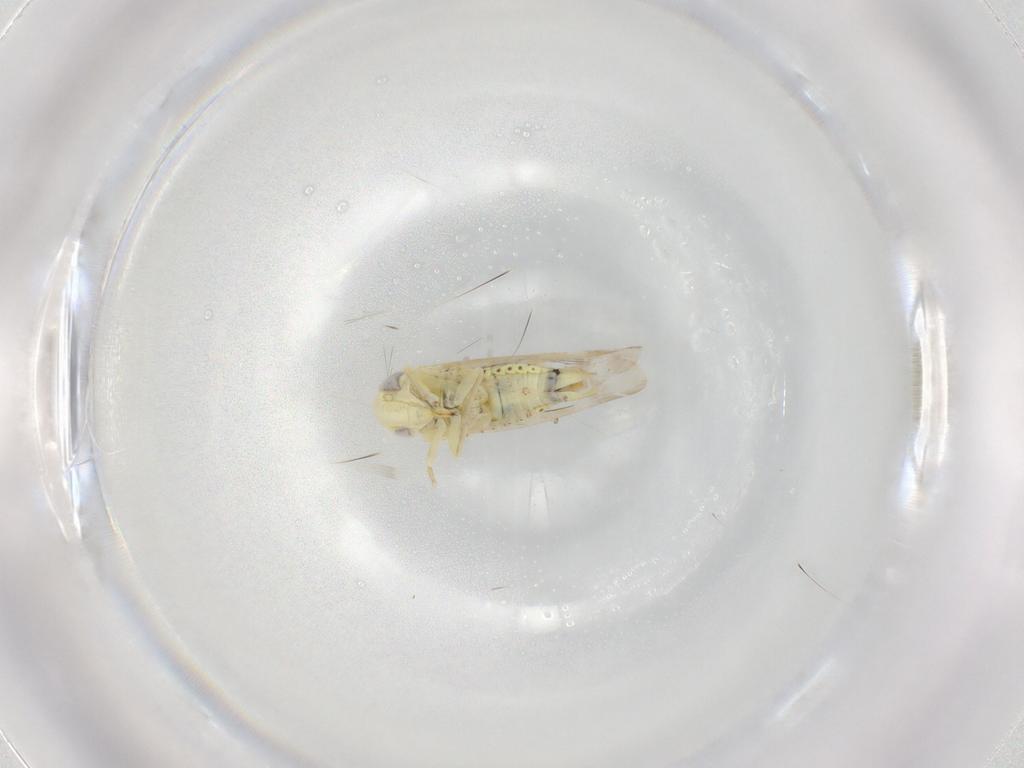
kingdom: Animalia
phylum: Arthropoda
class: Insecta
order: Hemiptera
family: Cicadellidae
